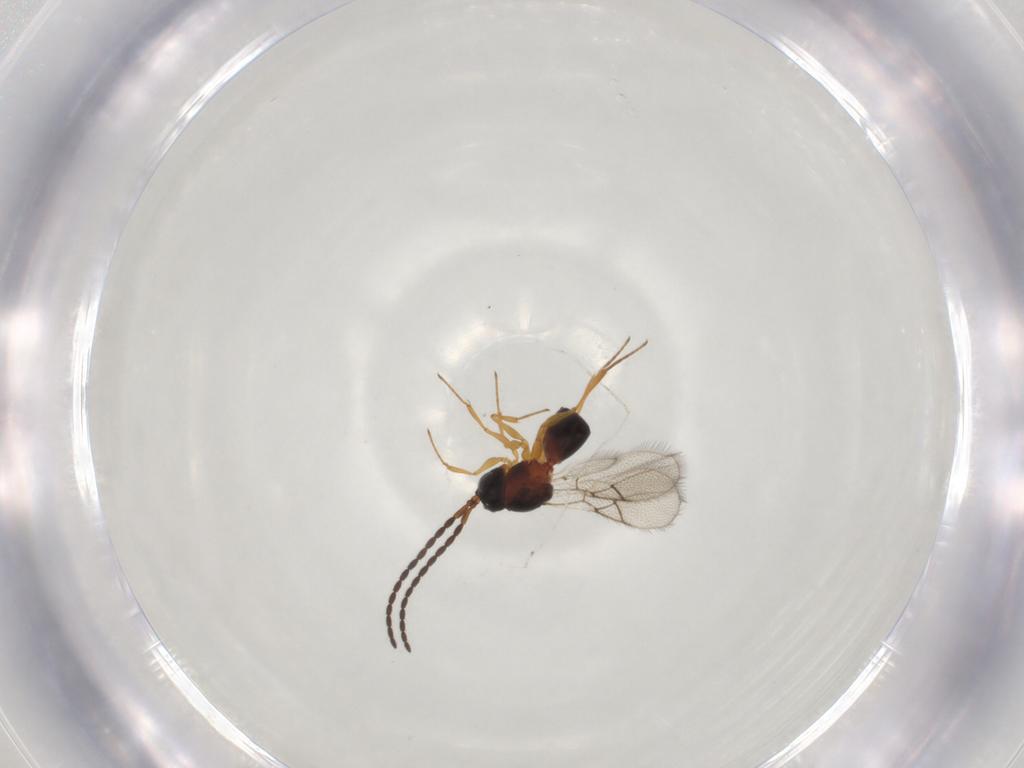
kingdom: Animalia
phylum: Arthropoda
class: Insecta
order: Hymenoptera
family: Figitidae
